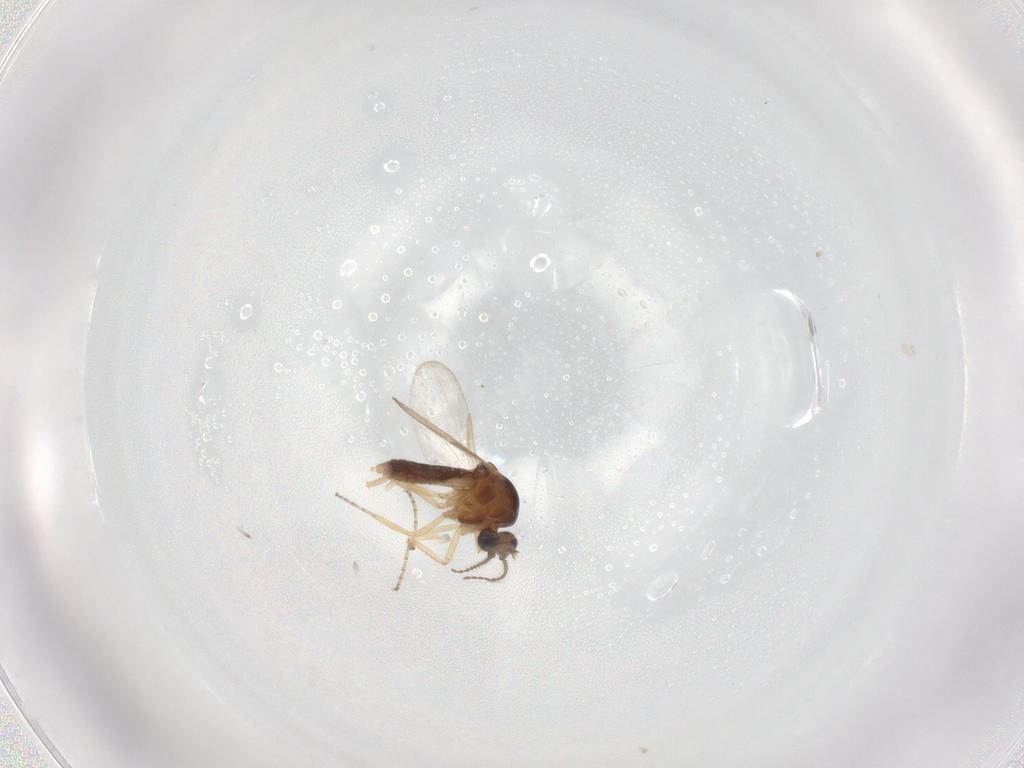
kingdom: Animalia
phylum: Arthropoda
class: Insecta
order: Diptera
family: Ceratopogonidae
